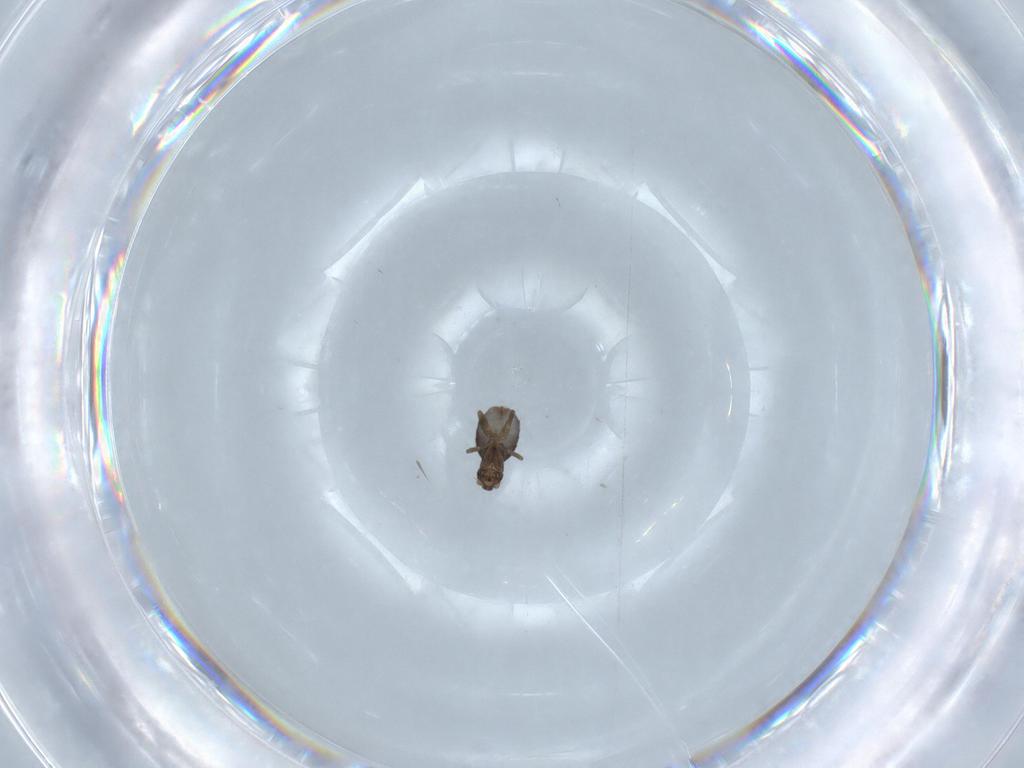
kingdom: Animalia
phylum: Arthropoda
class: Insecta
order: Diptera
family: Phoridae
